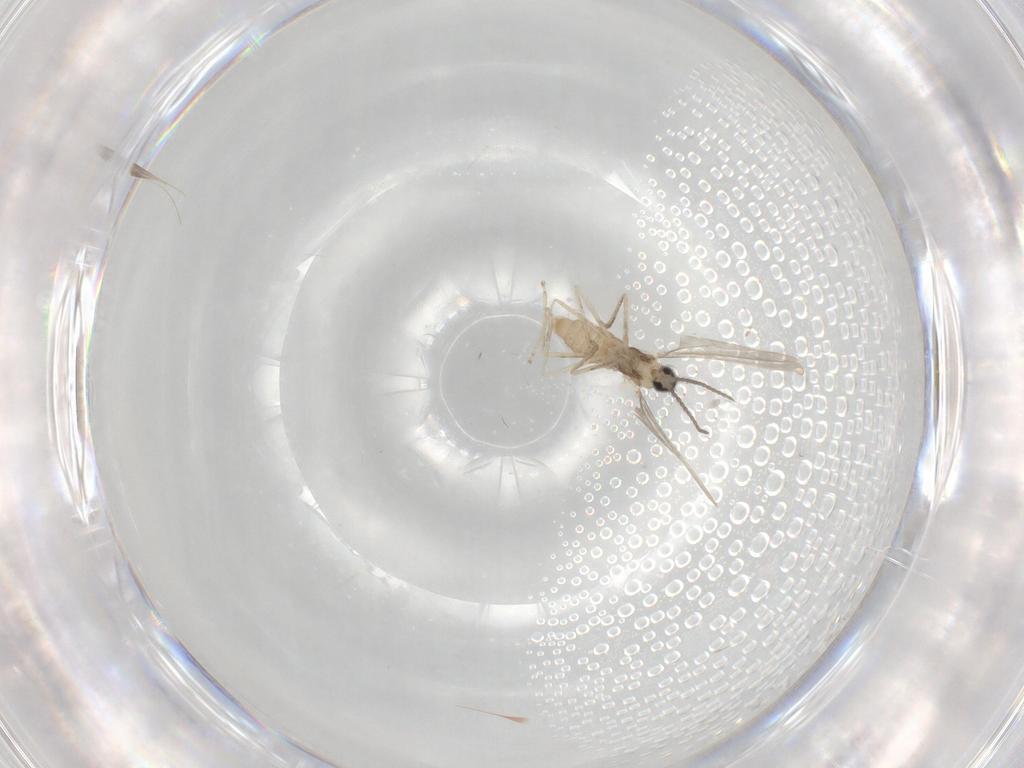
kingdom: Animalia
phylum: Arthropoda
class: Insecta
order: Diptera
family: Cecidomyiidae
